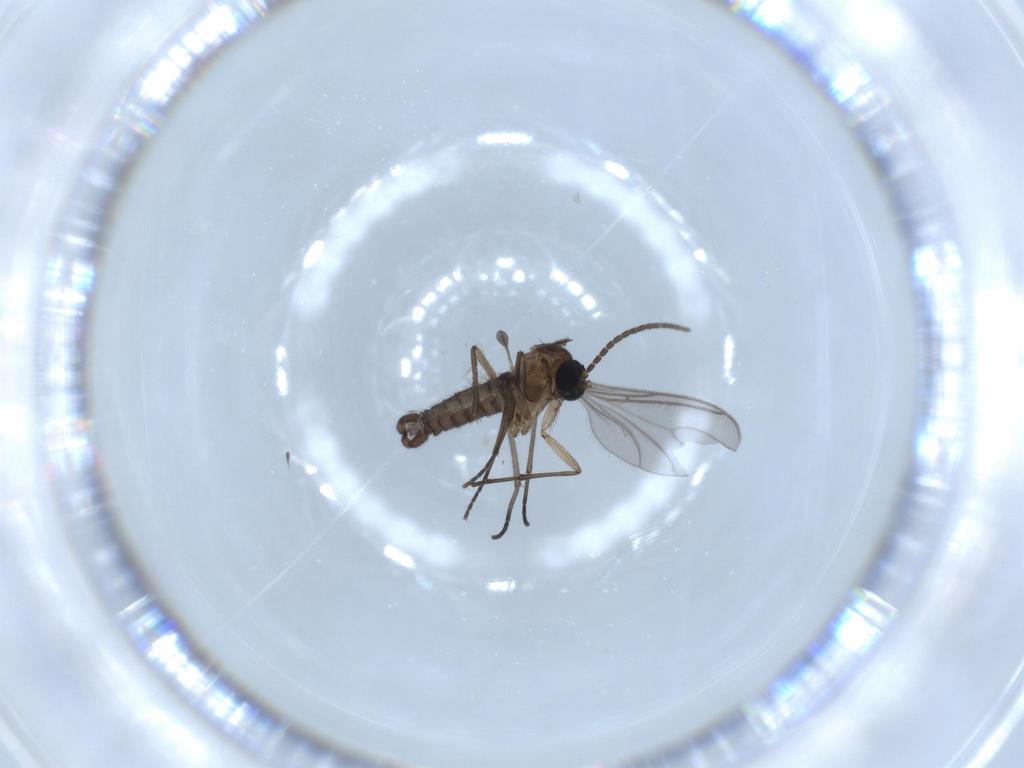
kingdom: Animalia
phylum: Arthropoda
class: Insecta
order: Diptera
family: Sciaridae
